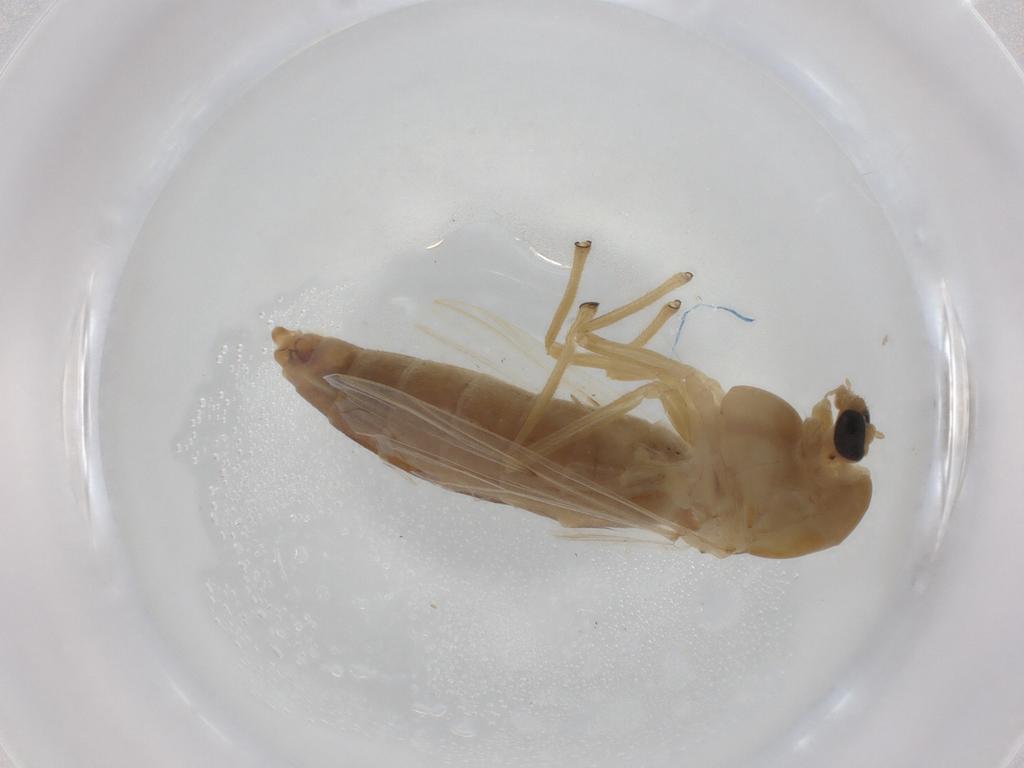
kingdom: Animalia
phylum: Arthropoda
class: Insecta
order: Diptera
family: Chironomidae
